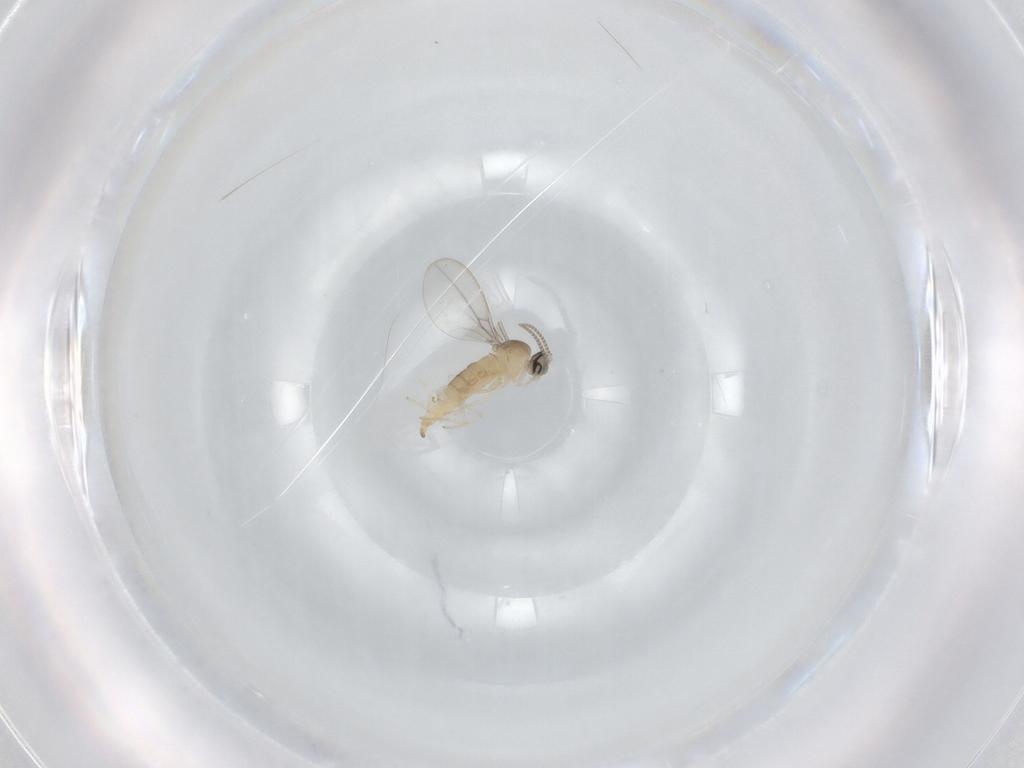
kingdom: Animalia
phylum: Arthropoda
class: Insecta
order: Diptera
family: Cecidomyiidae
